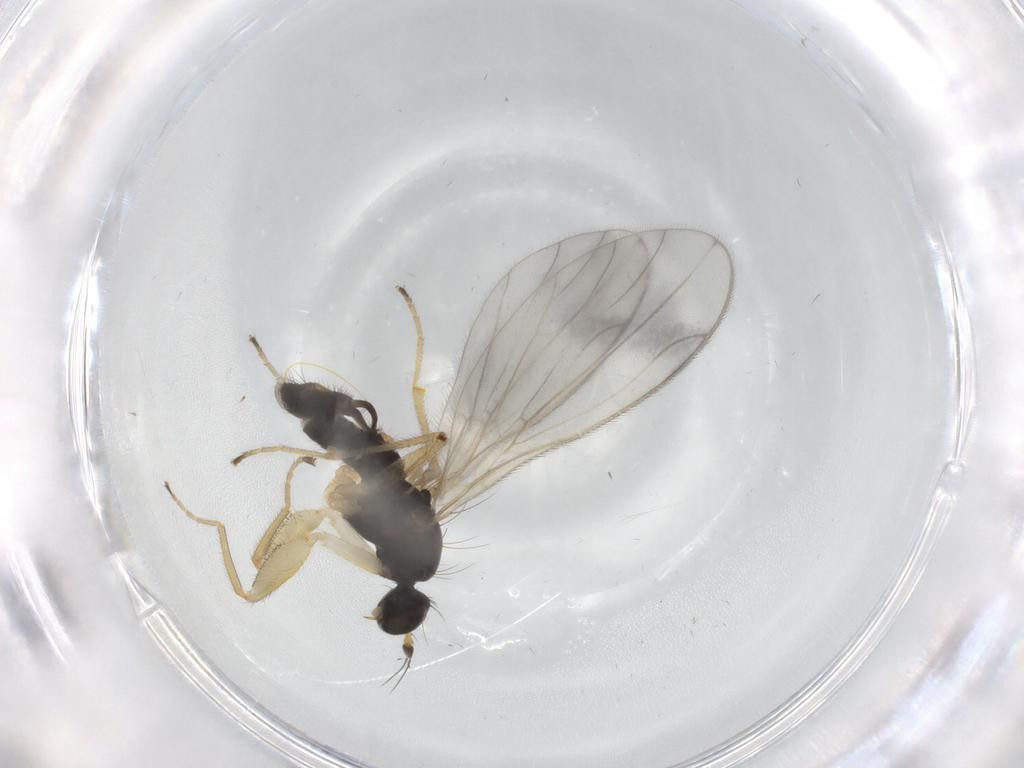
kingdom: Animalia
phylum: Arthropoda
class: Insecta
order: Diptera
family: Empididae
